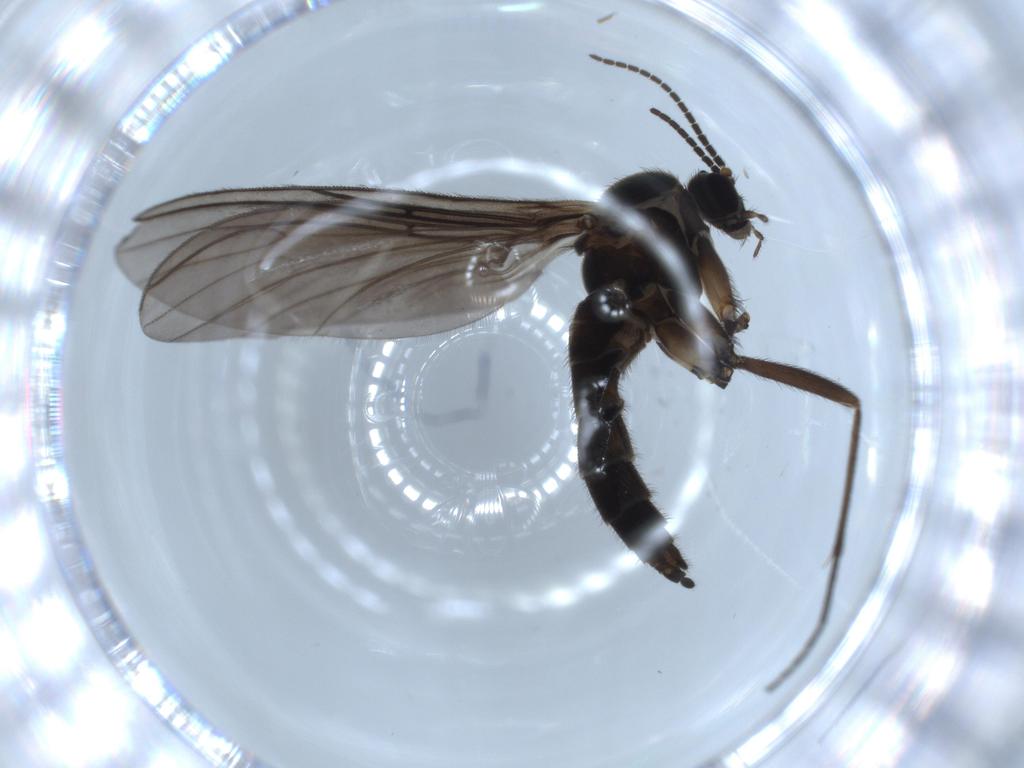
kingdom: Animalia
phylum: Arthropoda
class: Insecta
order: Diptera
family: Sciaridae
